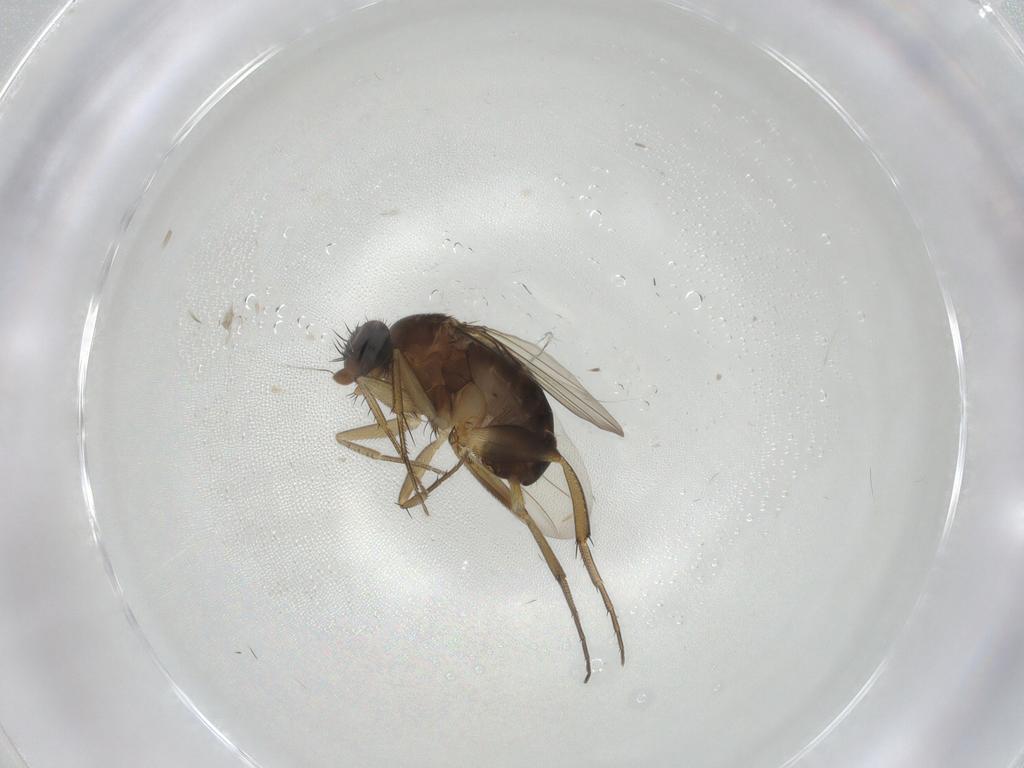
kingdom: Animalia
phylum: Arthropoda
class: Insecta
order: Diptera
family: Phoridae
